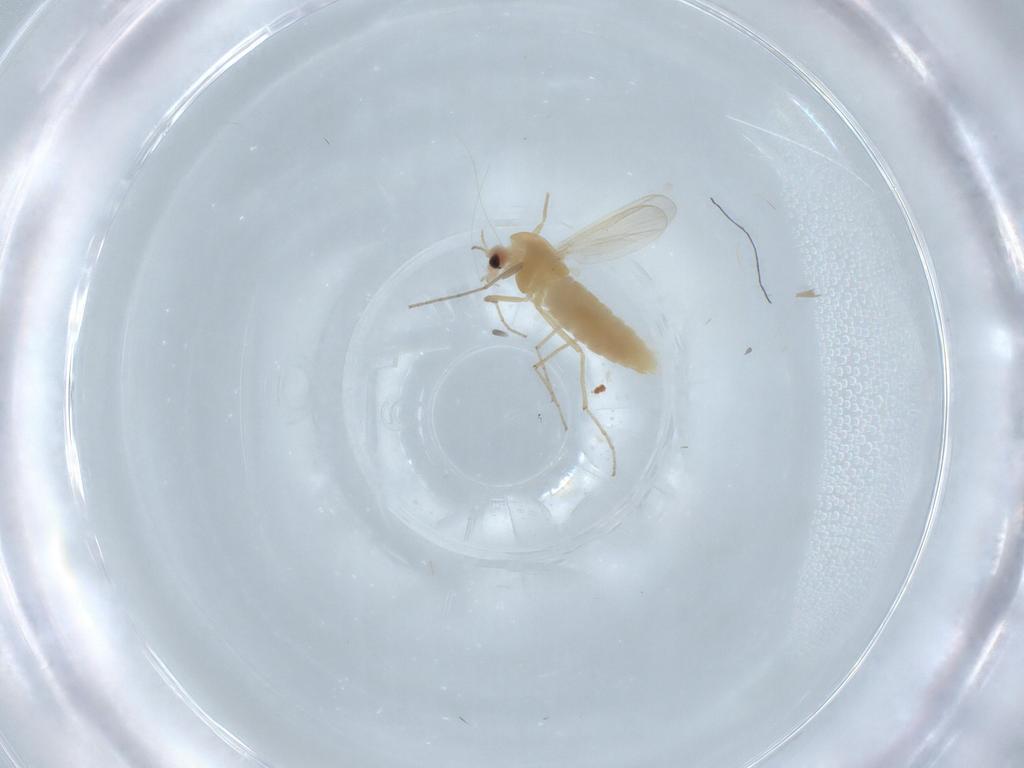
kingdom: Animalia
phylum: Arthropoda
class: Insecta
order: Diptera
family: Chironomidae
